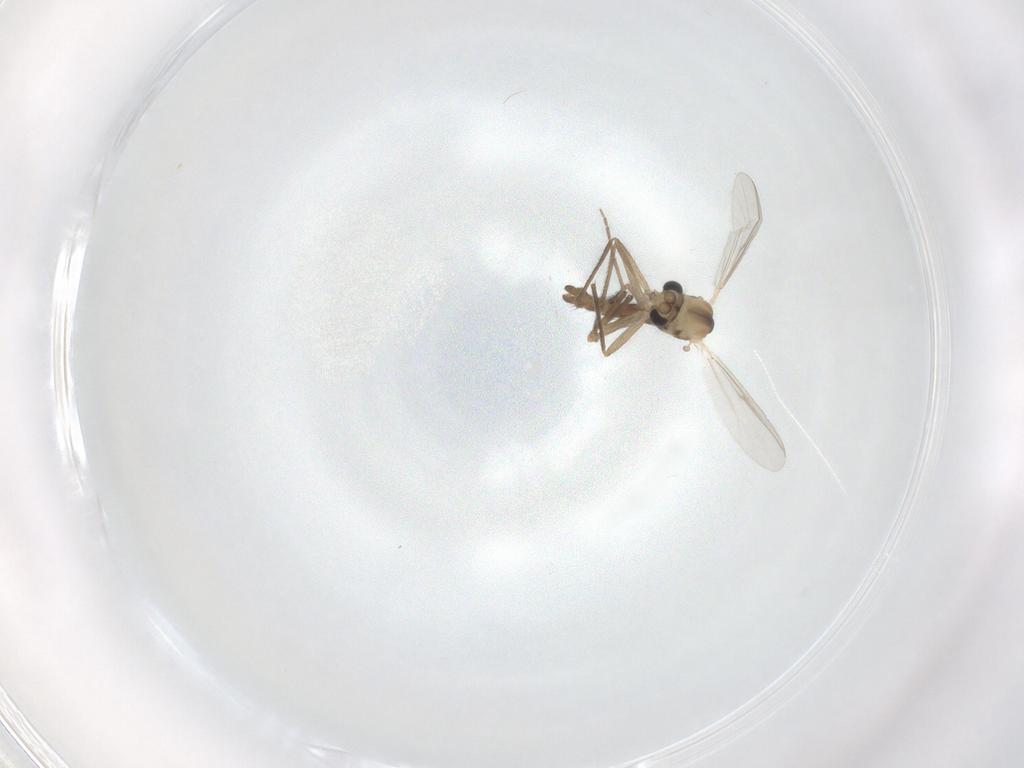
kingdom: Animalia
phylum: Arthropoda
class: Insecta
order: Diptera
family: Chironomidae
